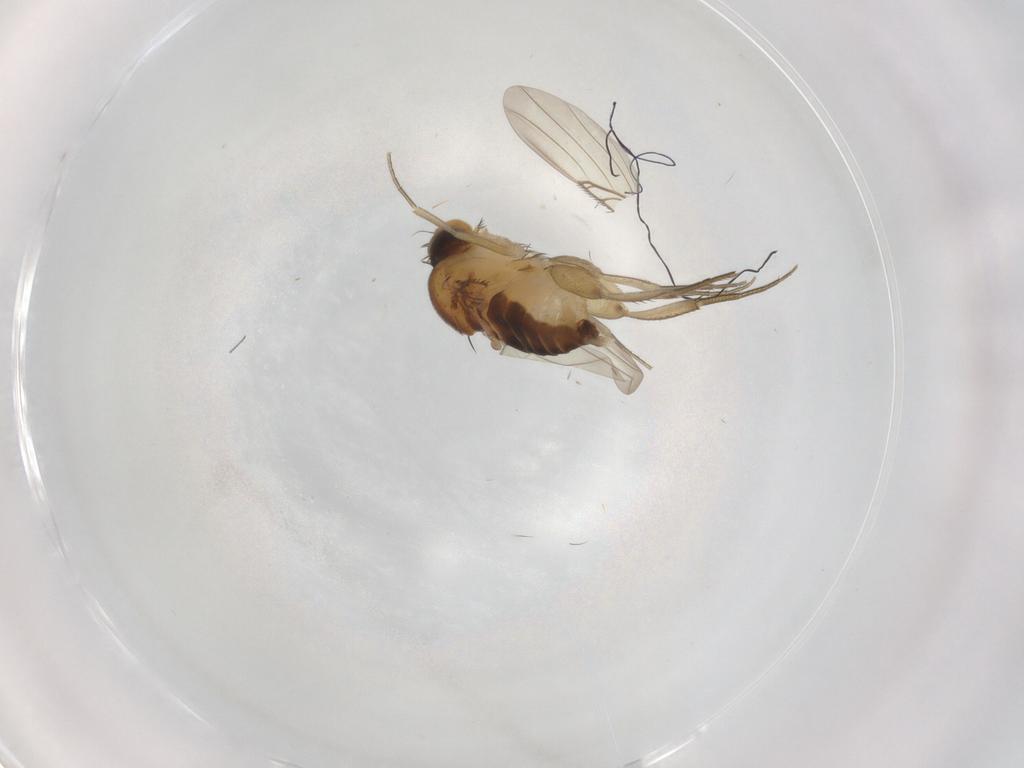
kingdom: Animalia
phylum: Arthropoda
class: Insecta
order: Diptera
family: Phoridae
